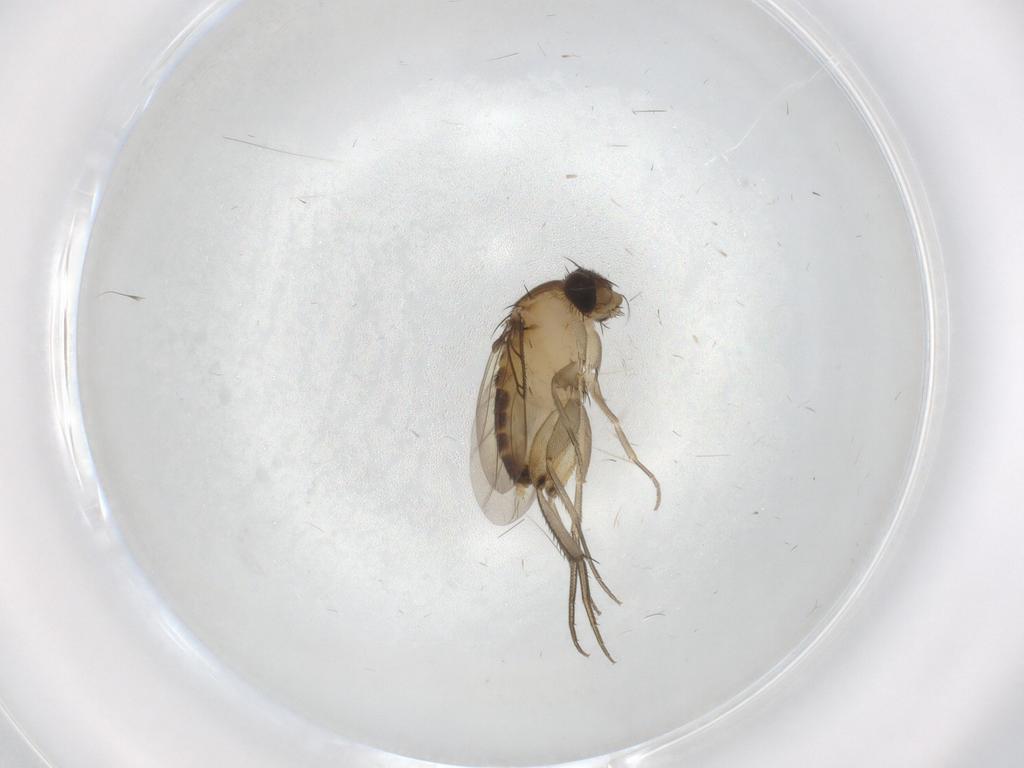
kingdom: Animalia
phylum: Arthropoda
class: Insecta
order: Diptera
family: Phoridae
